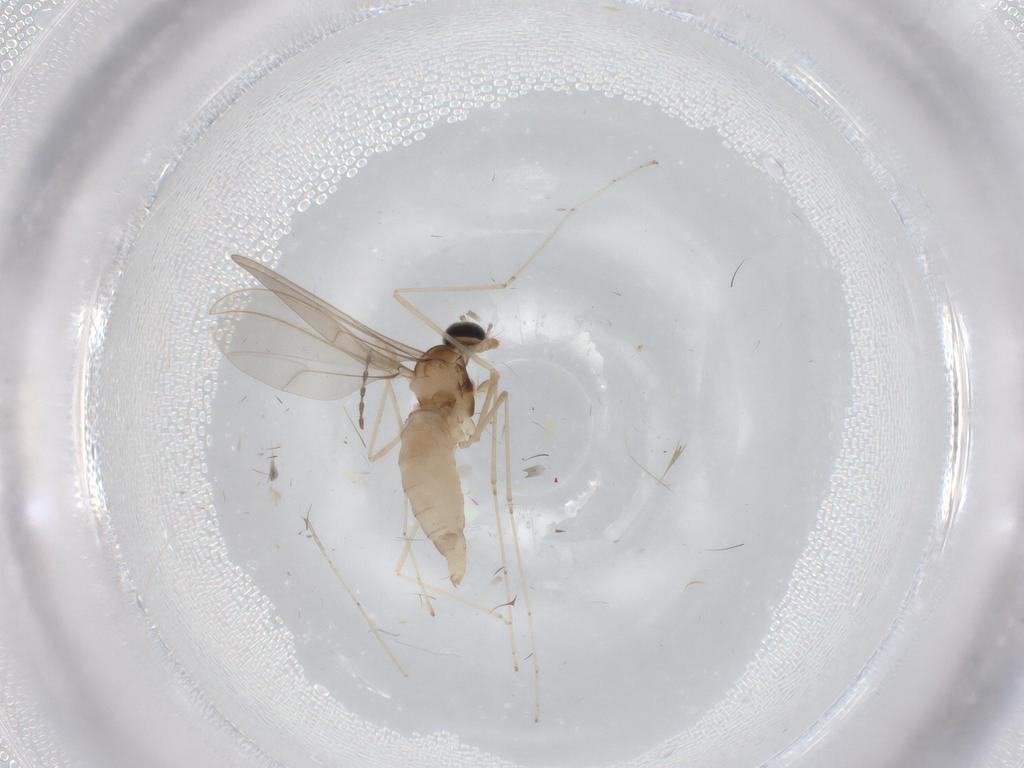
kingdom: Animalia
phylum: Arthropoda
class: Insecta
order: Diptera
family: Cecidomyiidae
